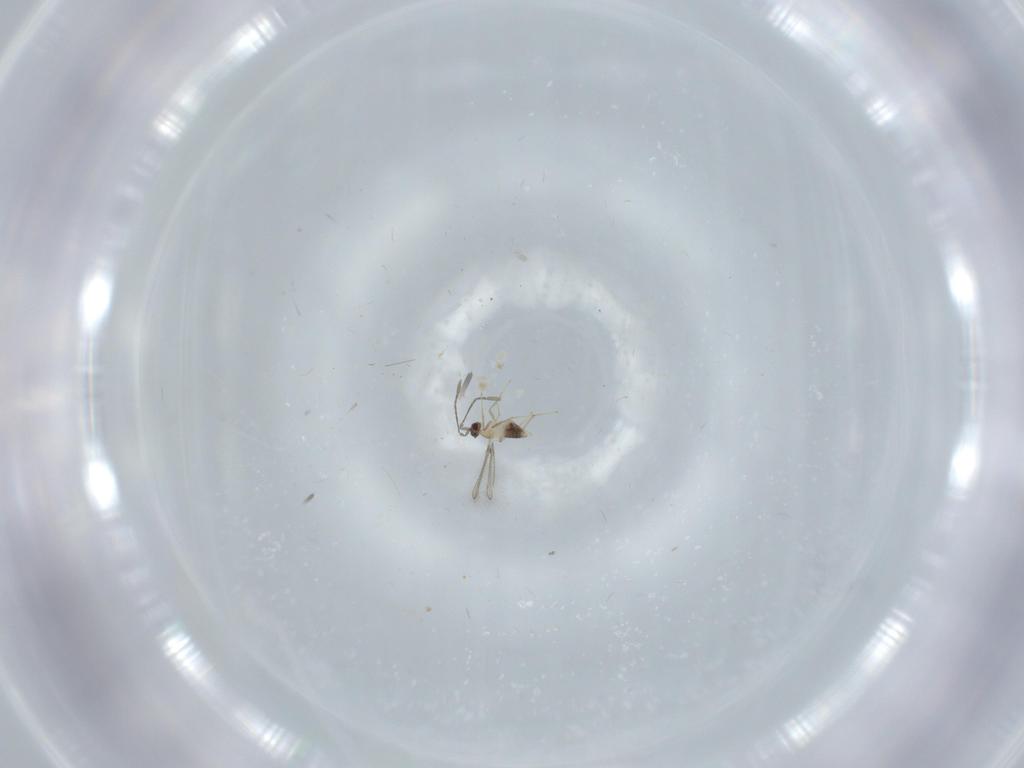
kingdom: Animalia
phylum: Arthropoda
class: Insecta
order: Hymenoptera
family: Mymaridae
